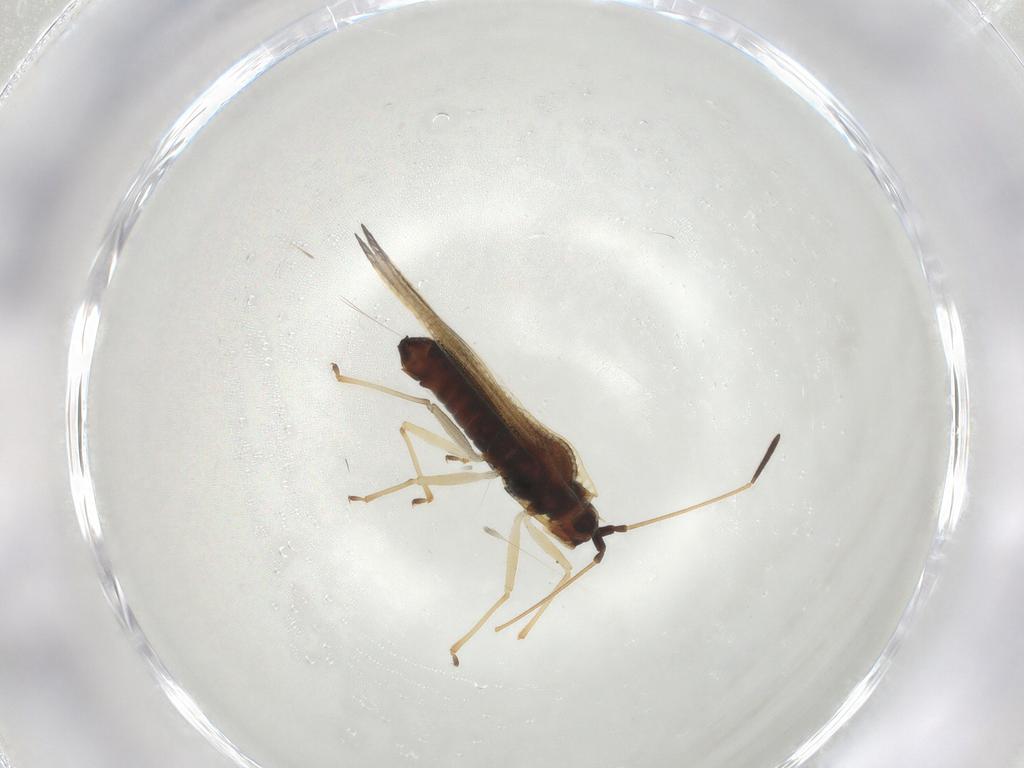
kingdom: Animalia
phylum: Arthropoda
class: Insecta
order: Hemiptera
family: Tingidae
